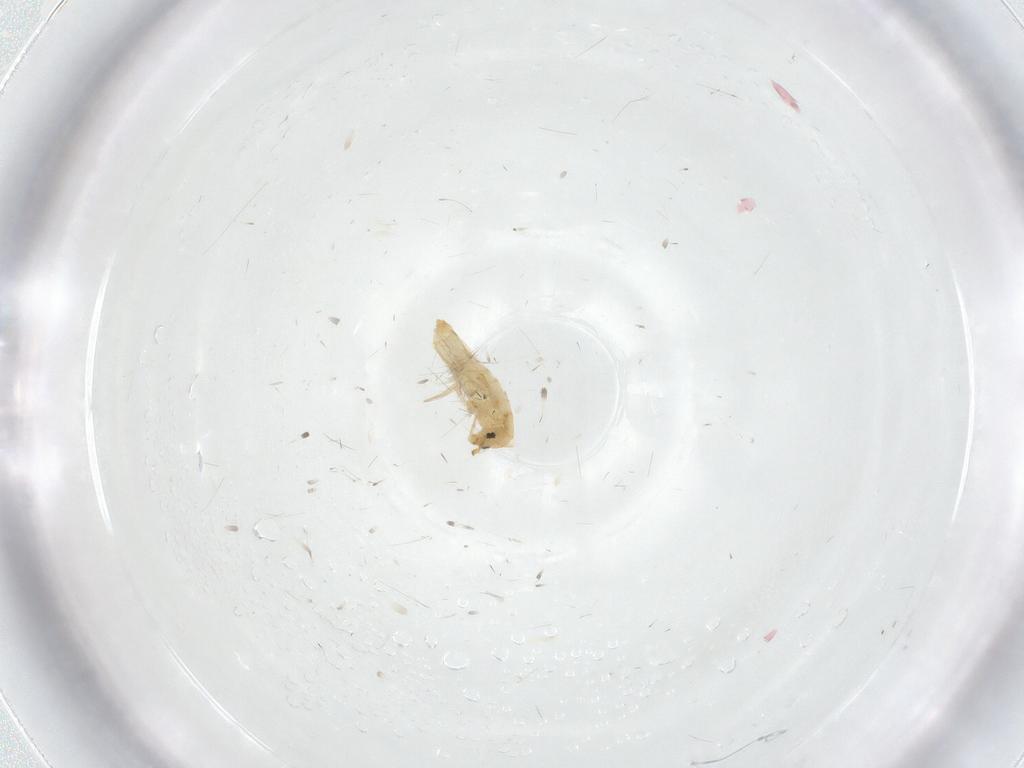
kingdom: Animalia
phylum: Arthropoda
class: Collembola
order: Entomobryomorpha
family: Entomobryidae
